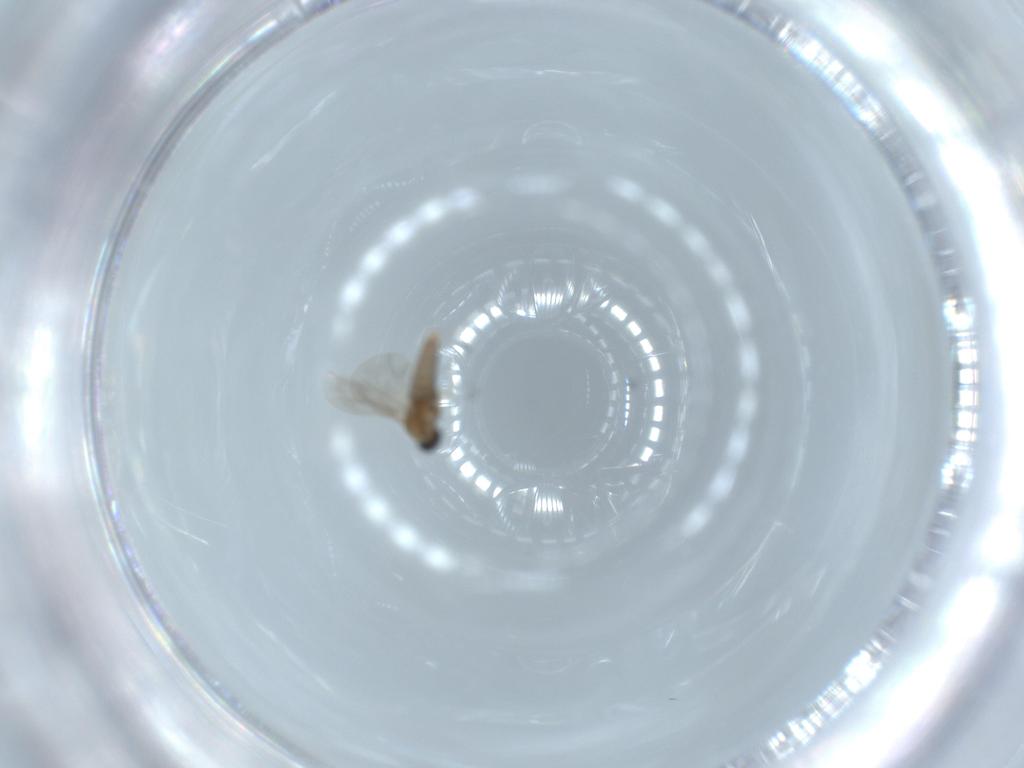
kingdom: Animalia
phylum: Arthropoda
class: Insecta
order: Diptera
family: Cecidomyiidae
